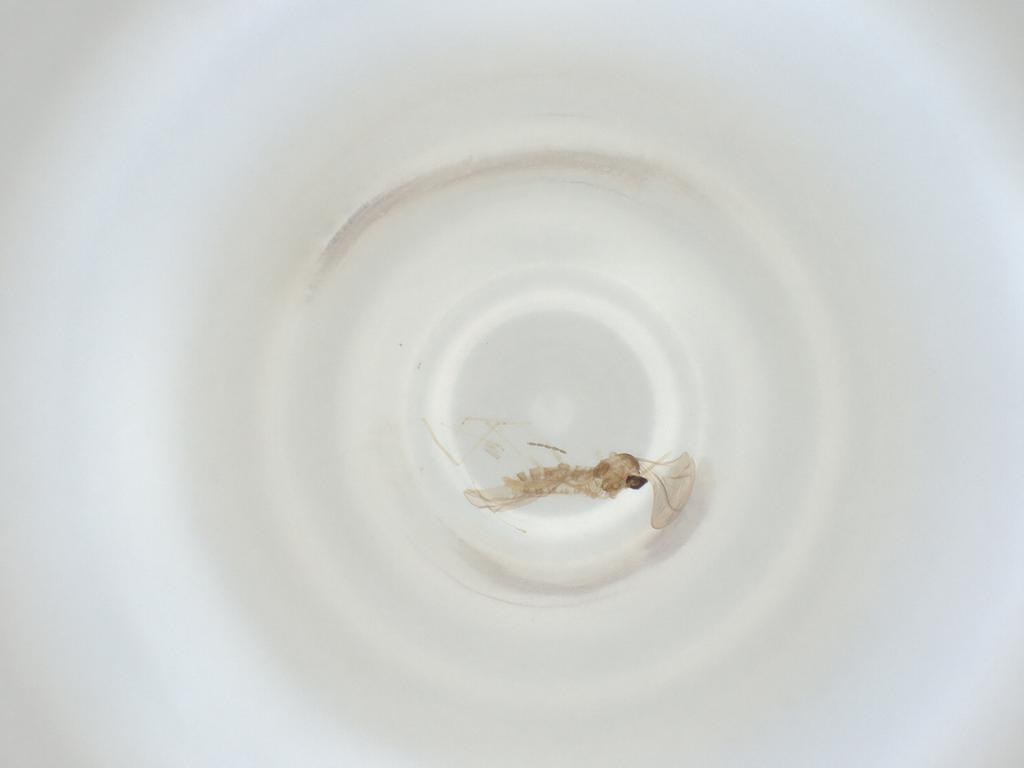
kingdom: Animalia
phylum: Arthropoda
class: Insecta
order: Diptera
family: Cecidomyiidae
